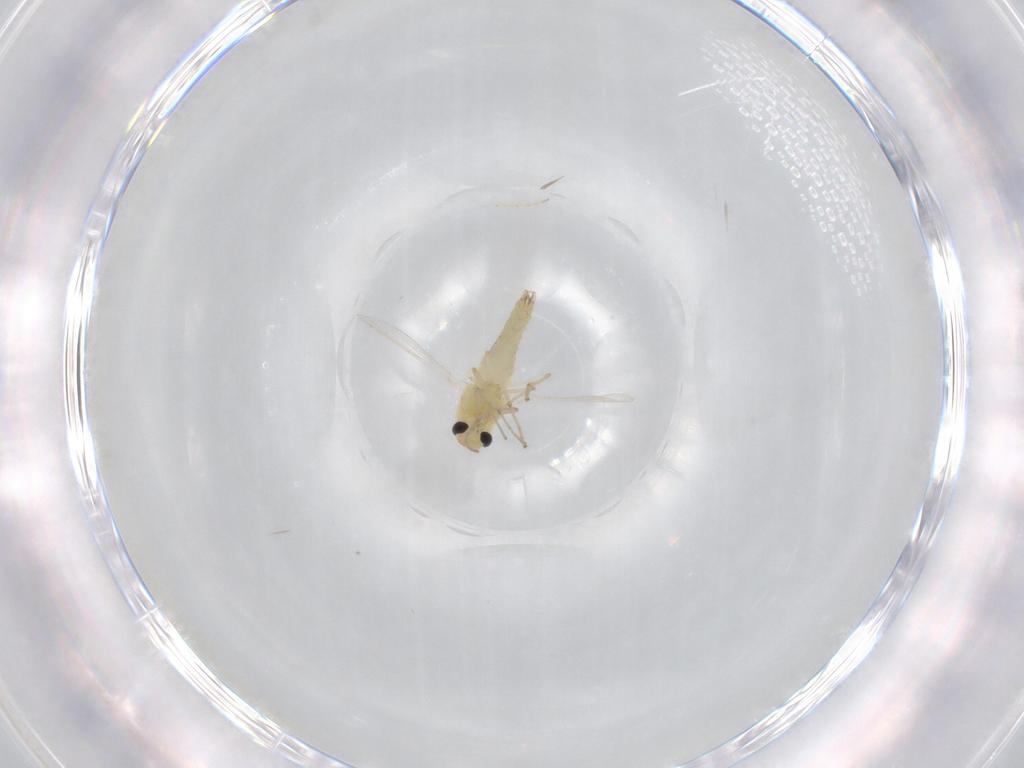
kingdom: Animalia
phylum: Arthropoda
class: Insecta
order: Diptera
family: Chironomidae
